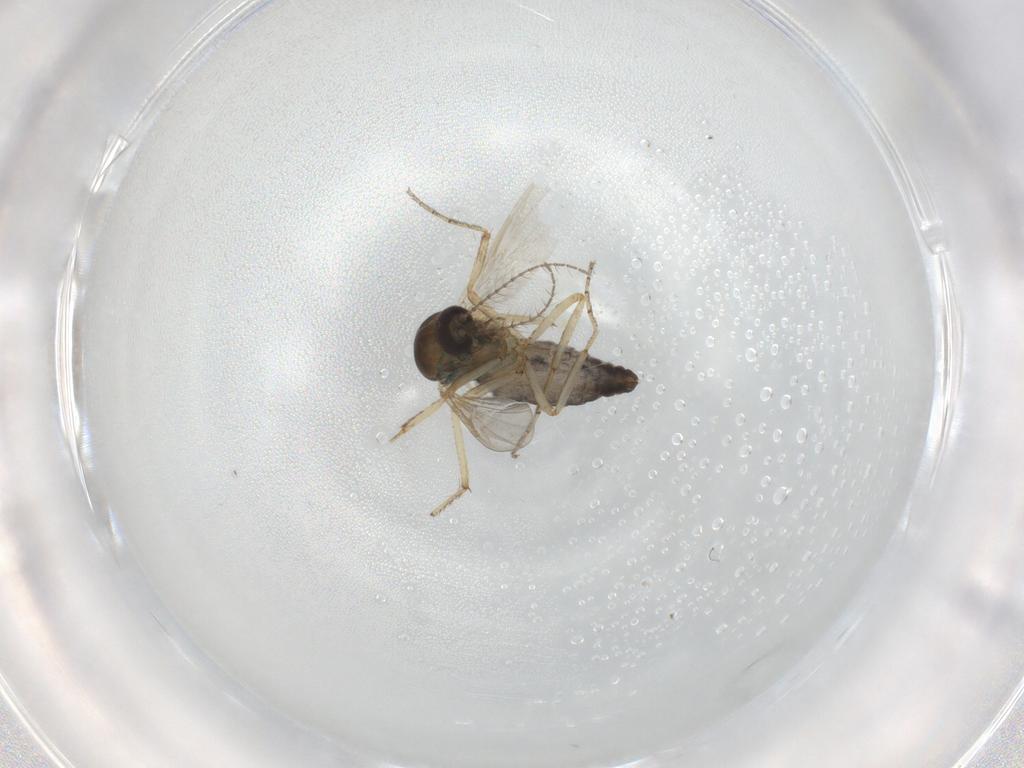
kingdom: Animalia
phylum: Arthropoda
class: Insecta
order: Diptera
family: Ceratopogonidae
